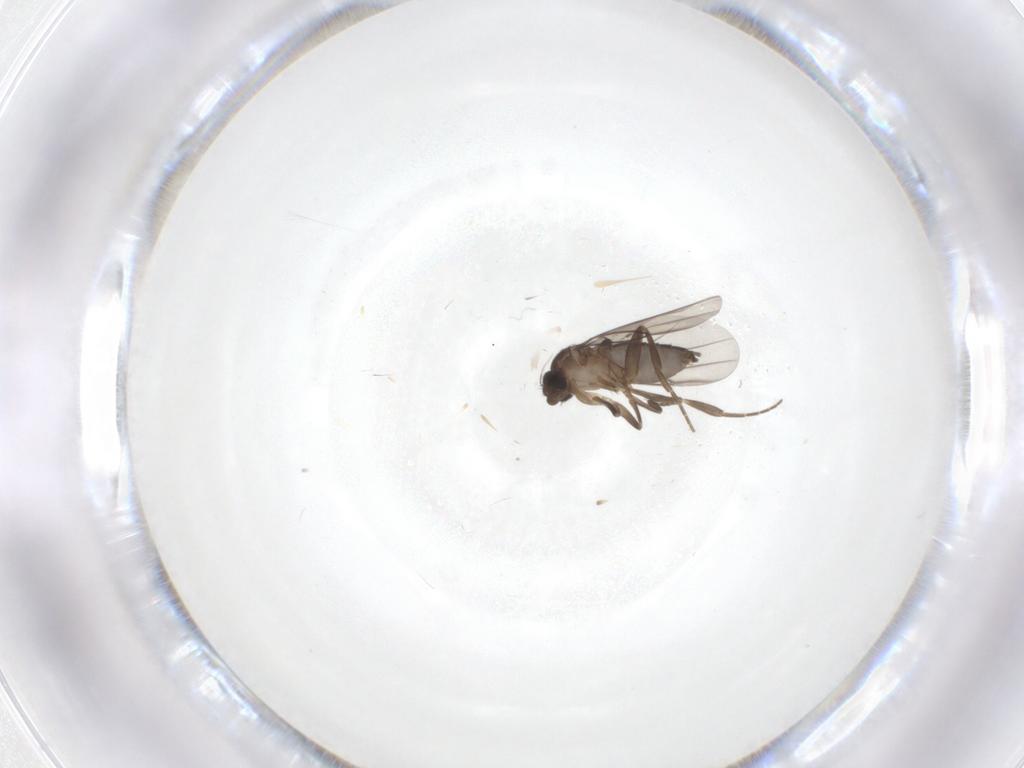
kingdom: Animalia
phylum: Arthropoda
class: Insecta
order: Diptera
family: Phoridae
